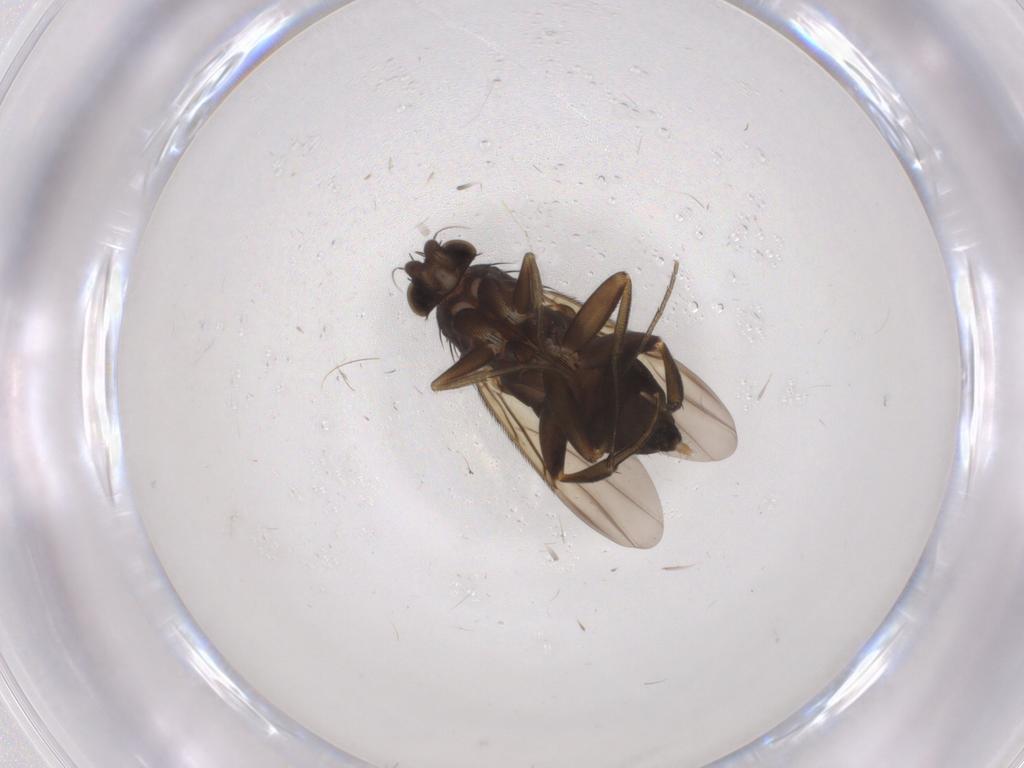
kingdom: Animalia
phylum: Arthropoda
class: Insecta
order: Diptera
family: Phoridae
